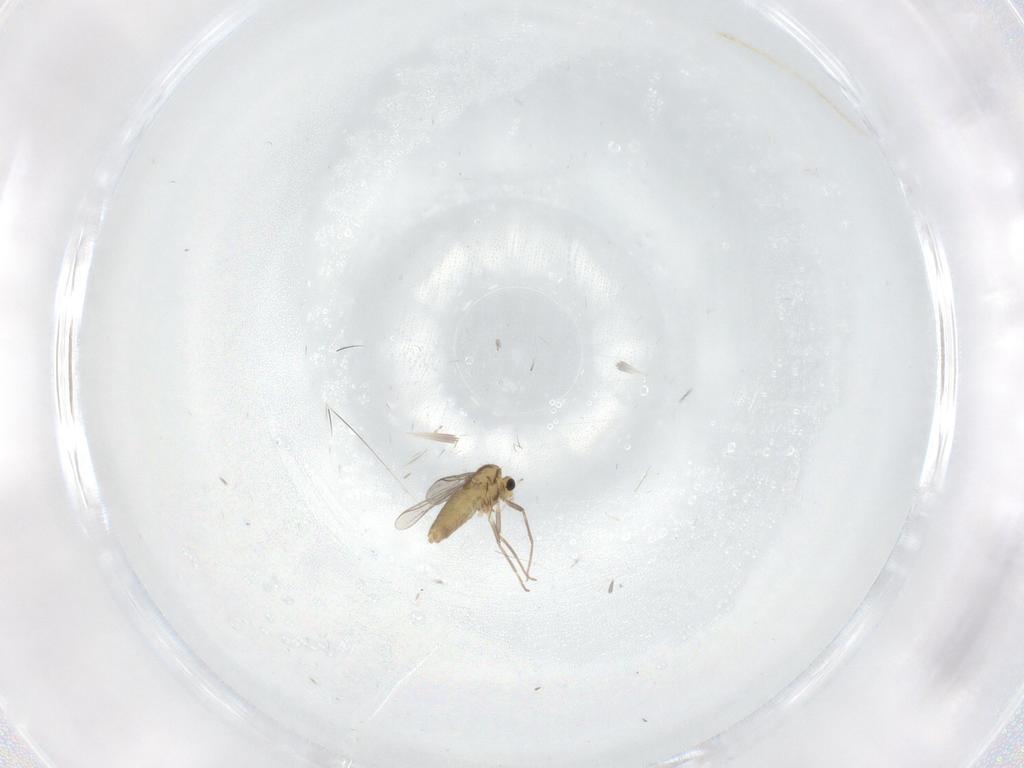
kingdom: Animalia
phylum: Arthropoda
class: Insecta
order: Diptera
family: Chironomidae
